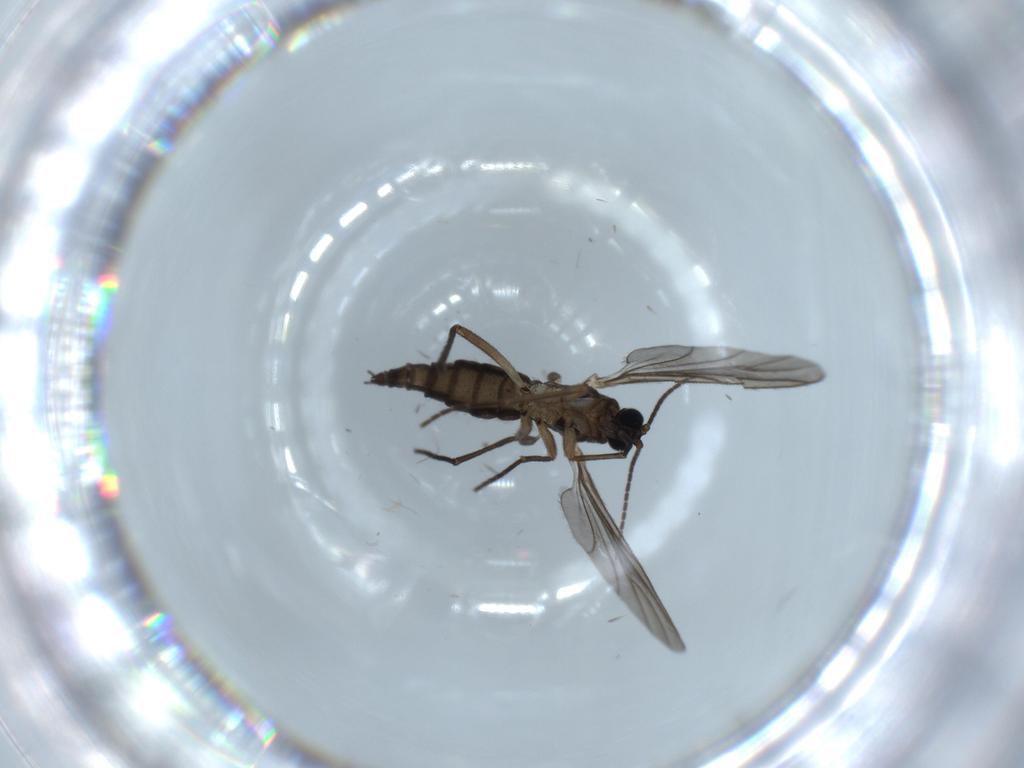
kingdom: Animalia
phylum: Arthropoda
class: Insecta
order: Diptera
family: Sciaridae
